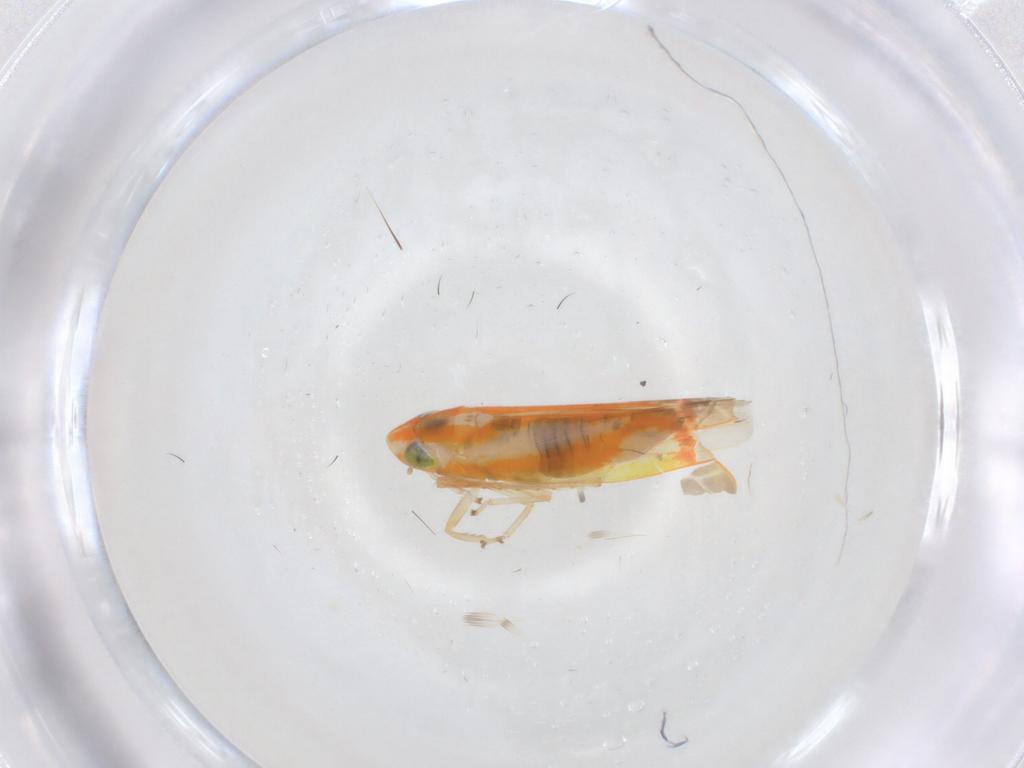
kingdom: Animalia
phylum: Arthropoda
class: Insecta
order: Hemiptera
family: Cicadellidae
